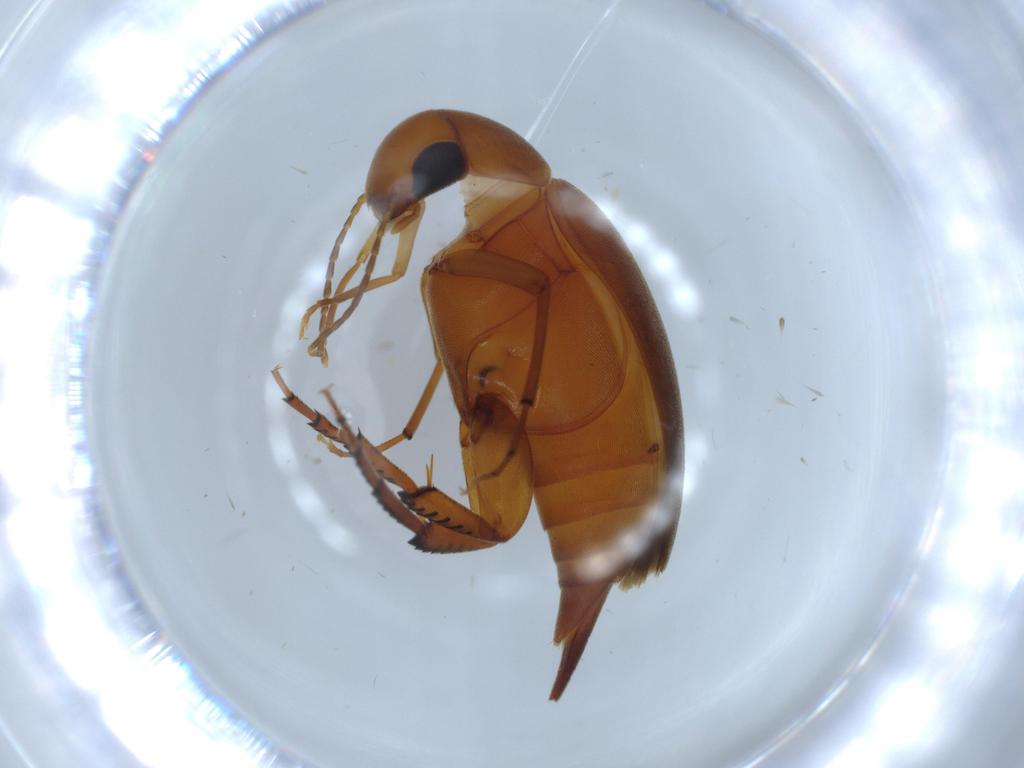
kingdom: Animalia
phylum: Arthropoda
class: Insecta
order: Coleoptera
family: Mordellidae
